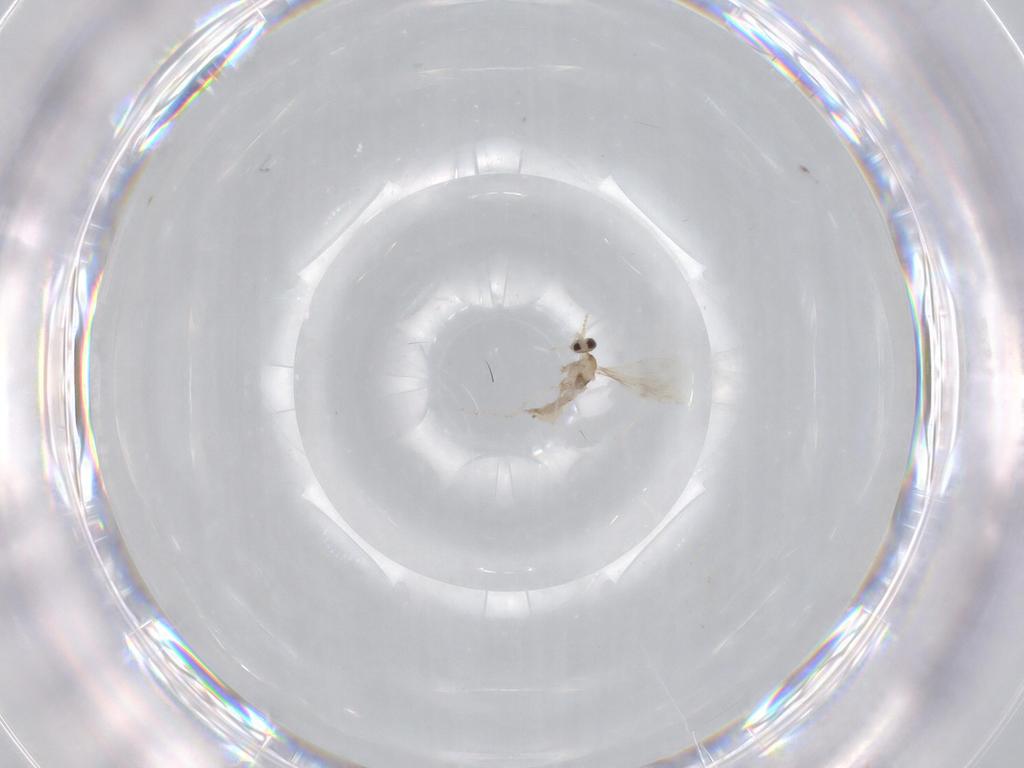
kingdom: Animalia
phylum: Arthropoda
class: Insecta
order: Diptera
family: Cecidomyiidae
